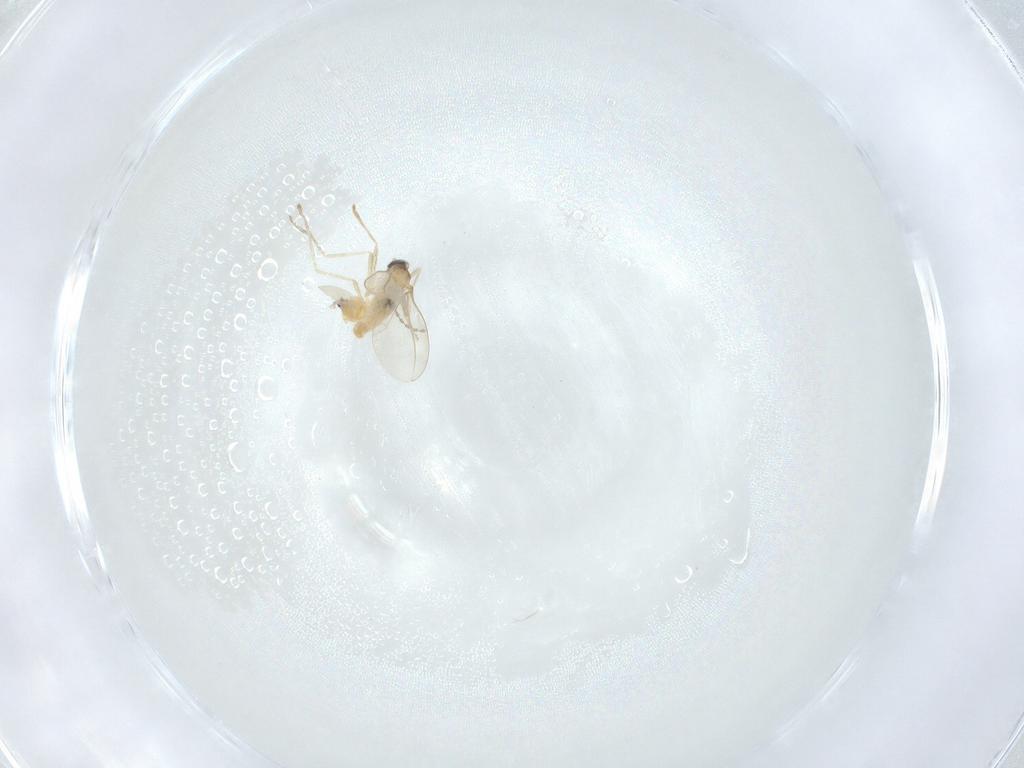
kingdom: Animalia
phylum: Arthropoda
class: Insecta
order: Diptera
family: Cecidomyiidae
